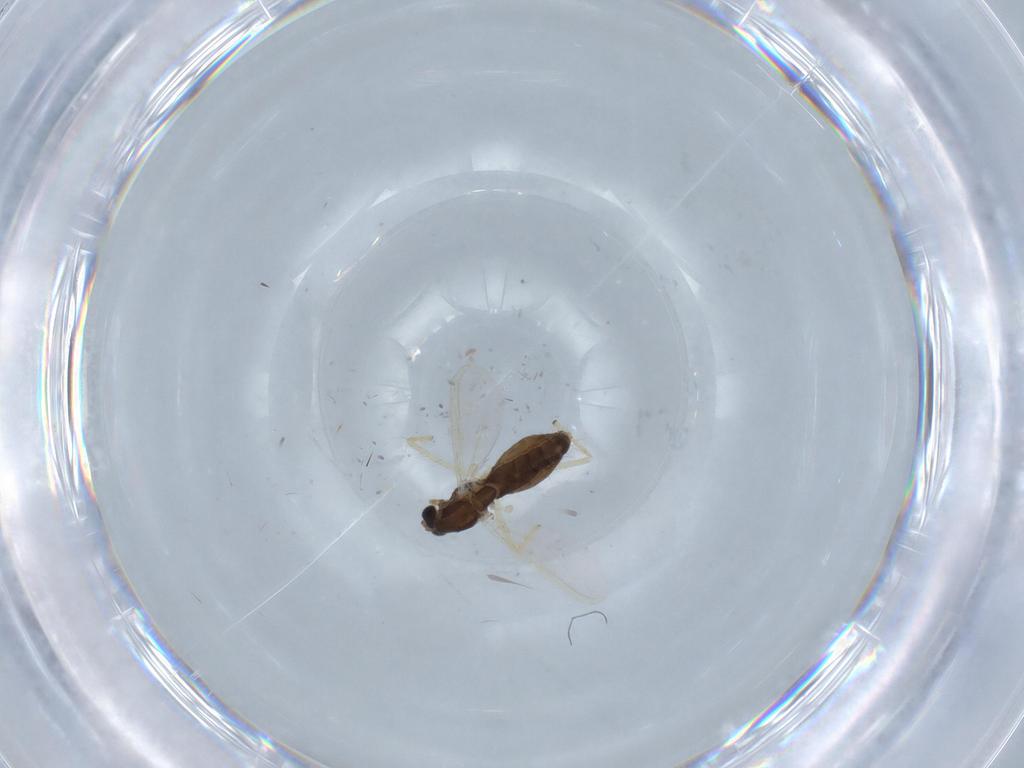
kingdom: Animalia
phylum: Arthropoda
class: Insecta
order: Diptera
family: Chironomidae
